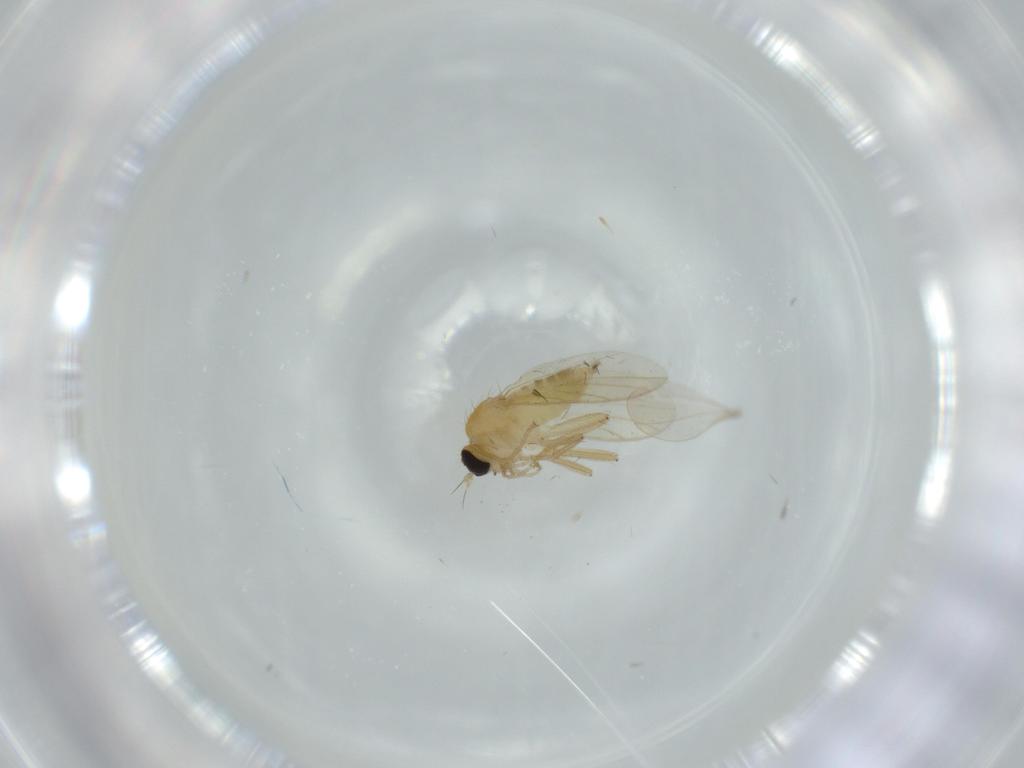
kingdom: Animalia
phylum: Arthropoda
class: Insecta
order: Diptera
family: Hybotidae
